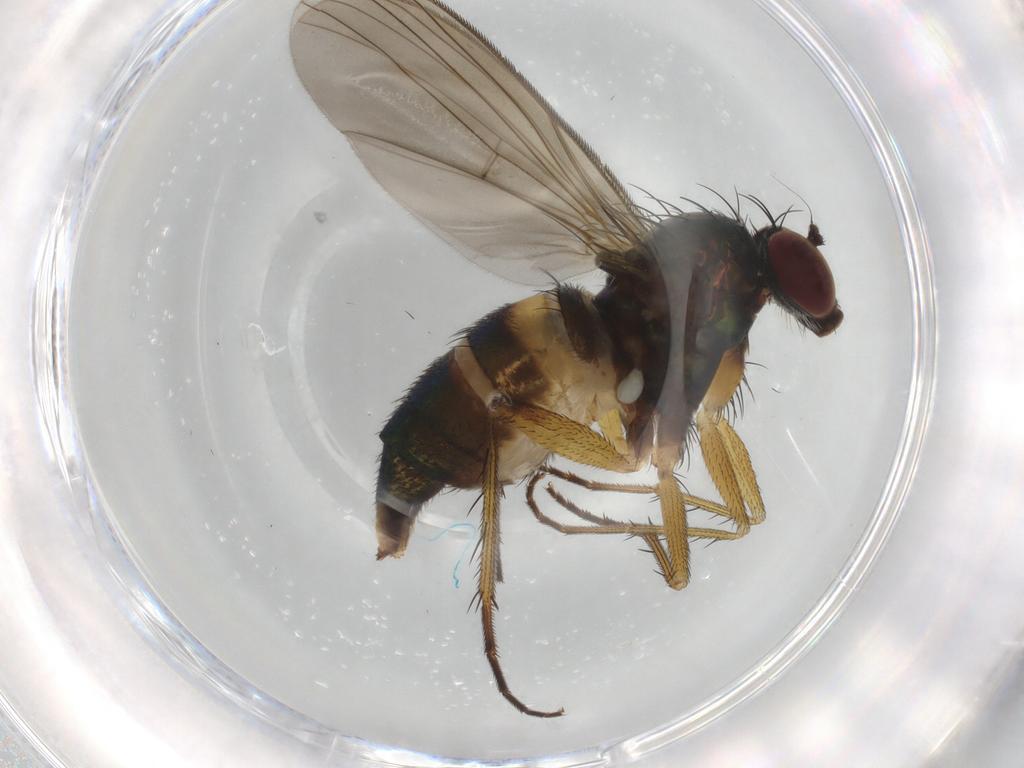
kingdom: Animalia
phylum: Arthropoda
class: Insecta
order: Diptera
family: Dolichopodidae
